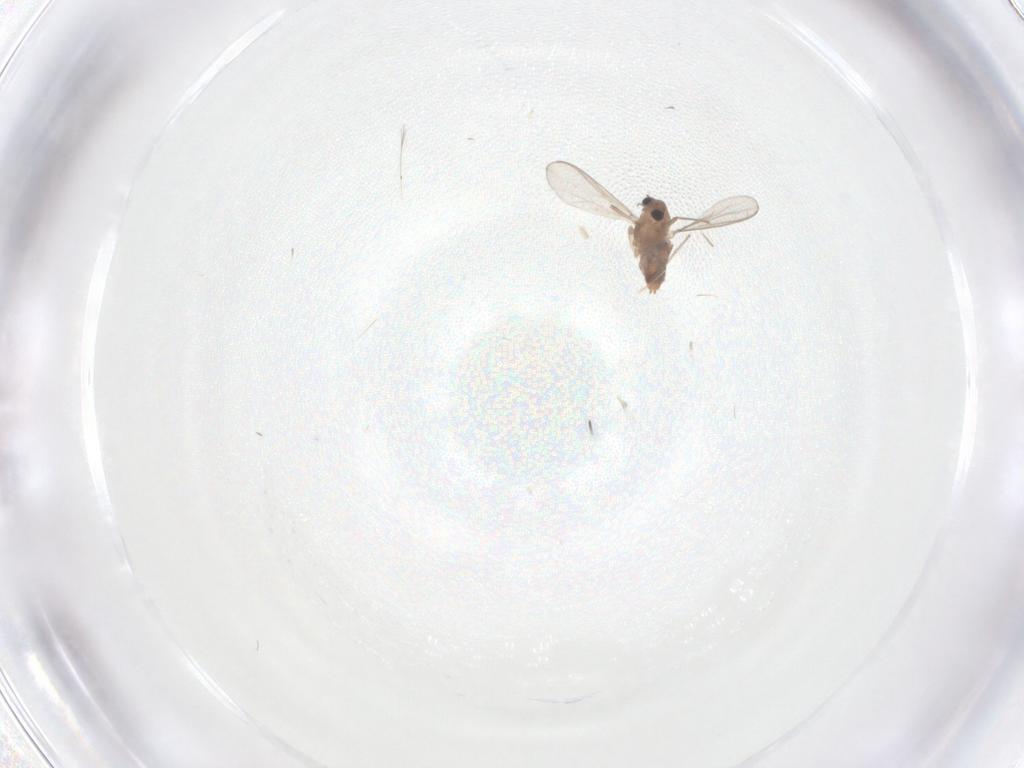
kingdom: Animalia
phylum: Arthropoda
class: Insecta
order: Diptera
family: Chironomidae
